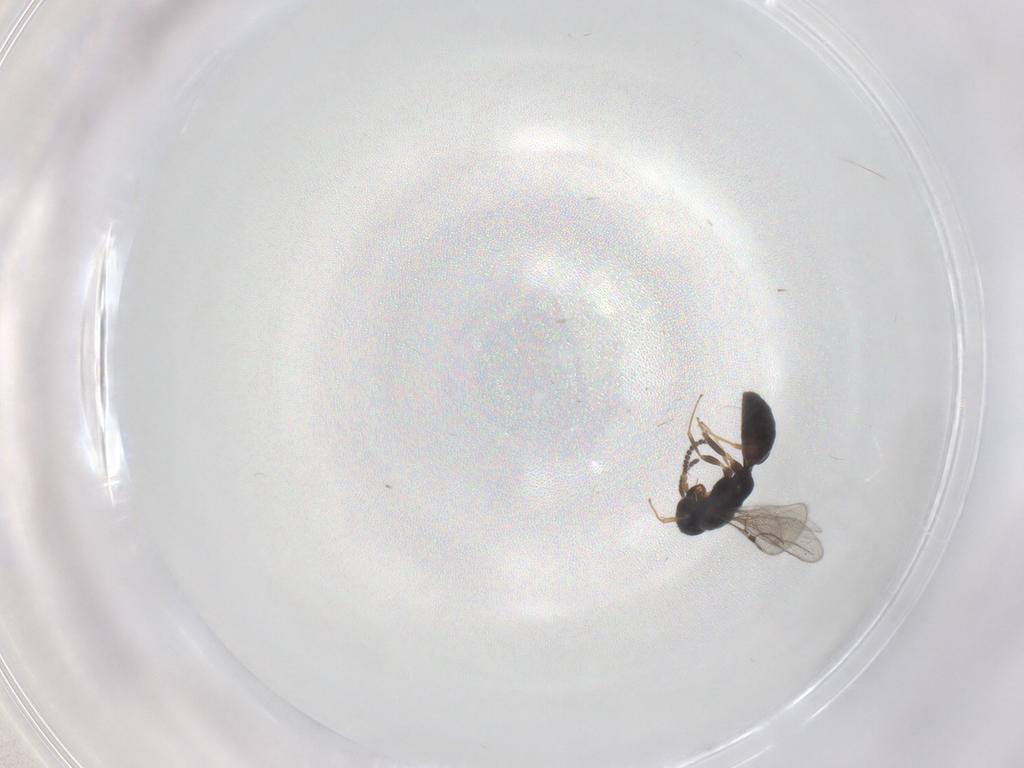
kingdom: Animalia
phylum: Arthropoda
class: Insecta
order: Hymenoptera
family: Bethylidae
